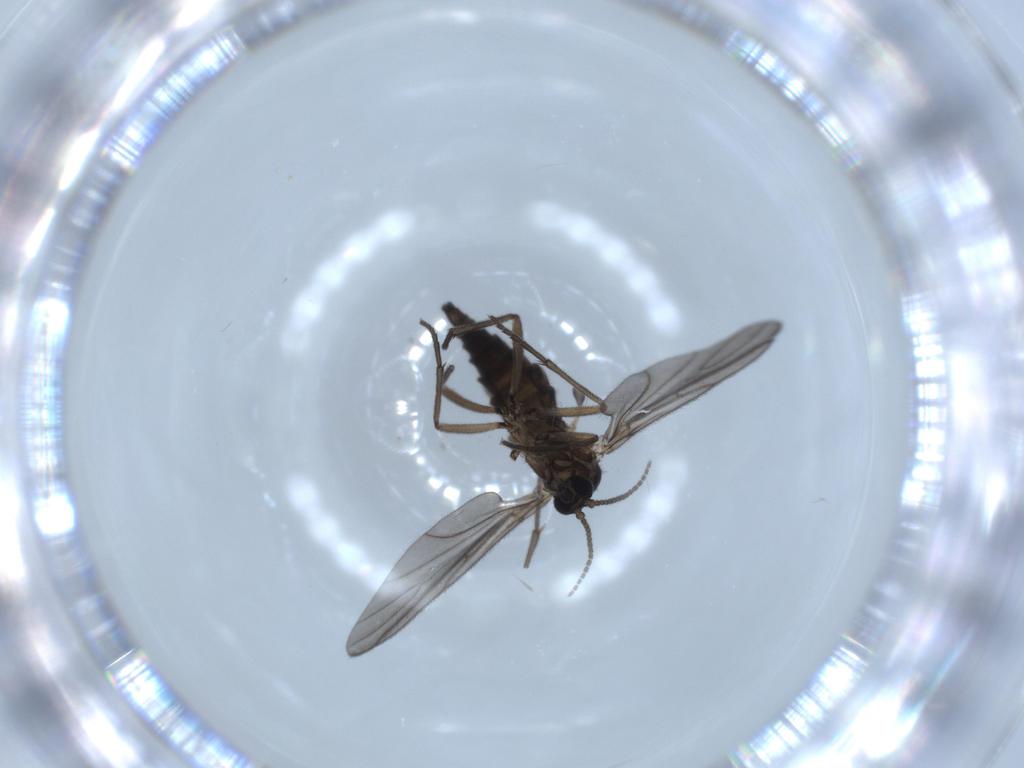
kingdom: Animalia
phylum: Arthropoda
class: Insecta
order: Diptera
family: Sciaridae
